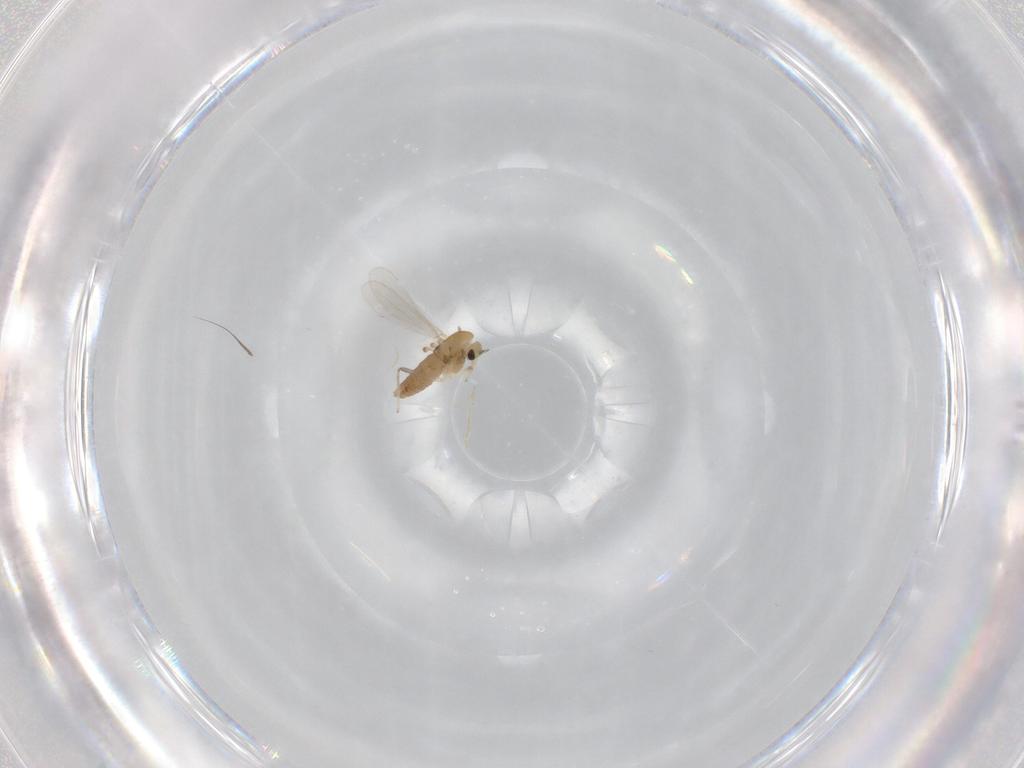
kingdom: Animalia
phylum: Arthropoda
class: Insecta
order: Diptera
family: Chironomidae
